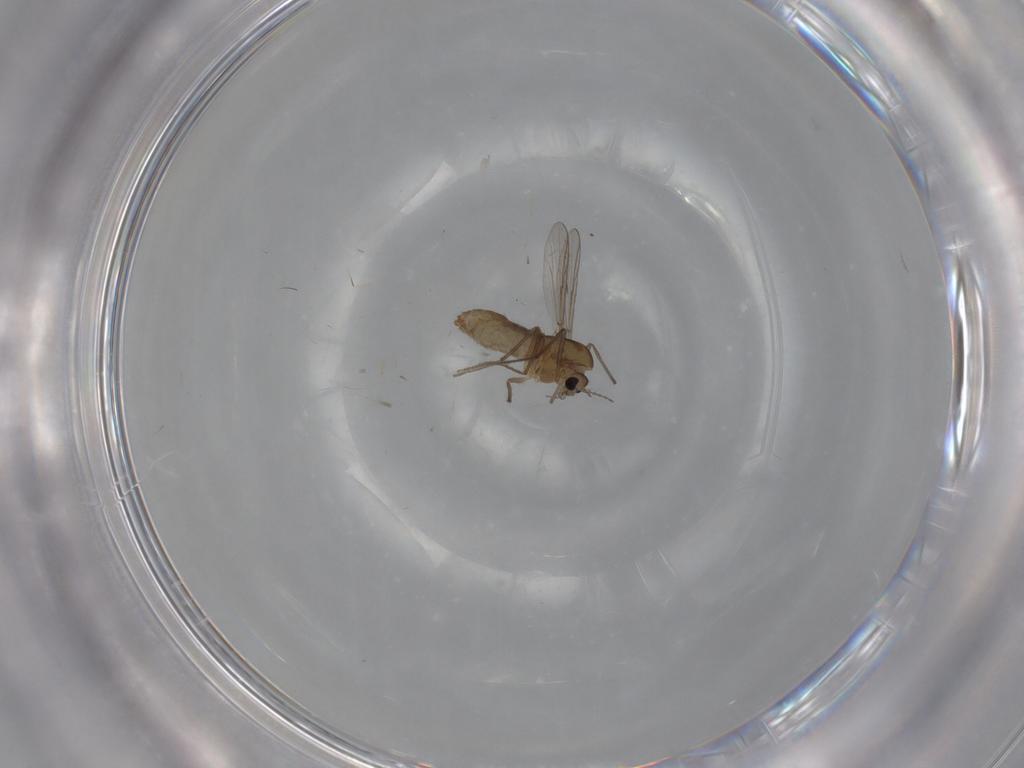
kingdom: Animalia
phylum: Arthropoda
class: Insecta
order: Diptera
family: Chironomidae
